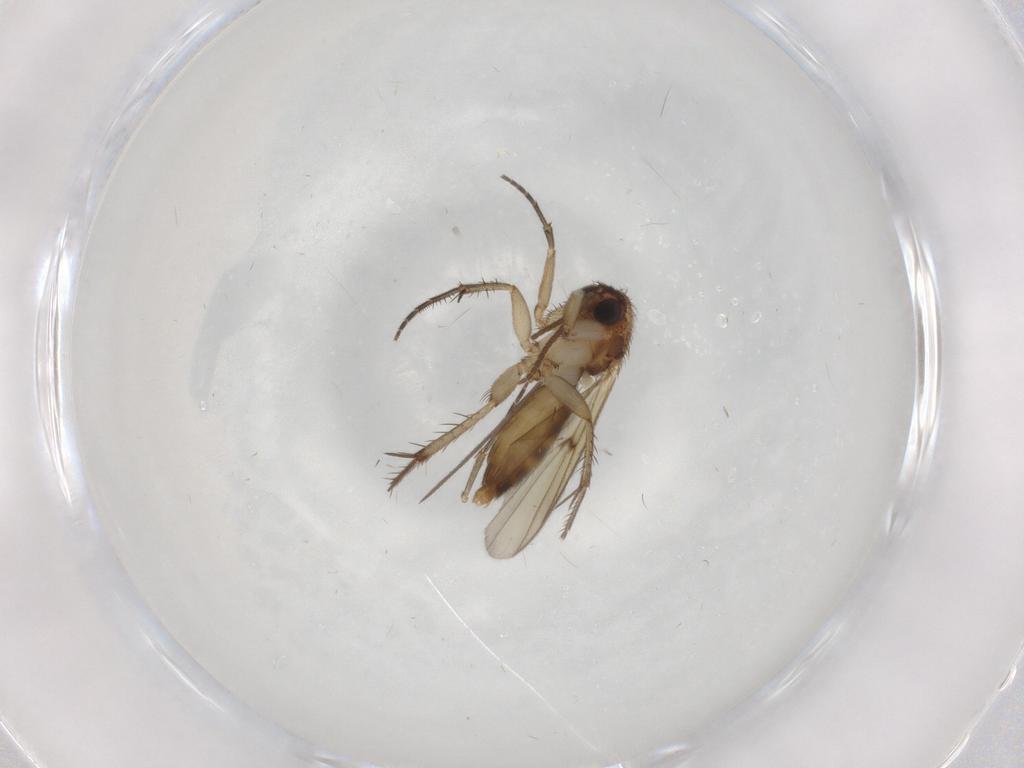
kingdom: Animalia
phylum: Arthropoda
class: Insecta
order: Diptera
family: Mycetophilidae
